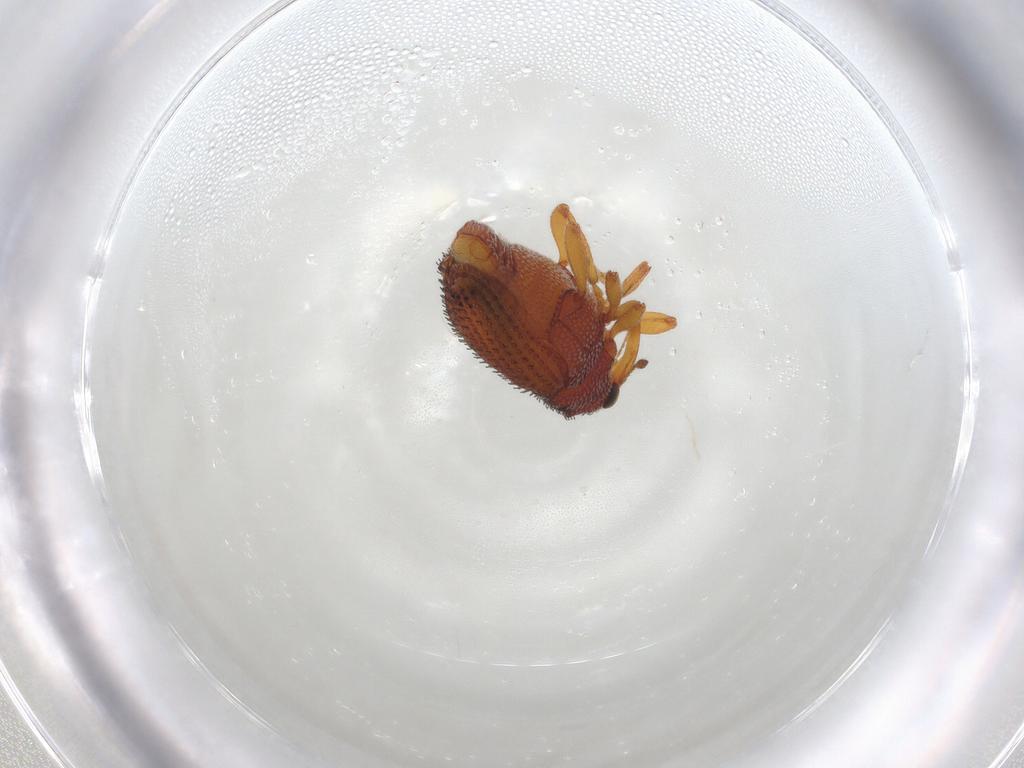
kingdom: Animalia
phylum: Arthropoda
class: Insecta
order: Coleoptera
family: Curculionidae
